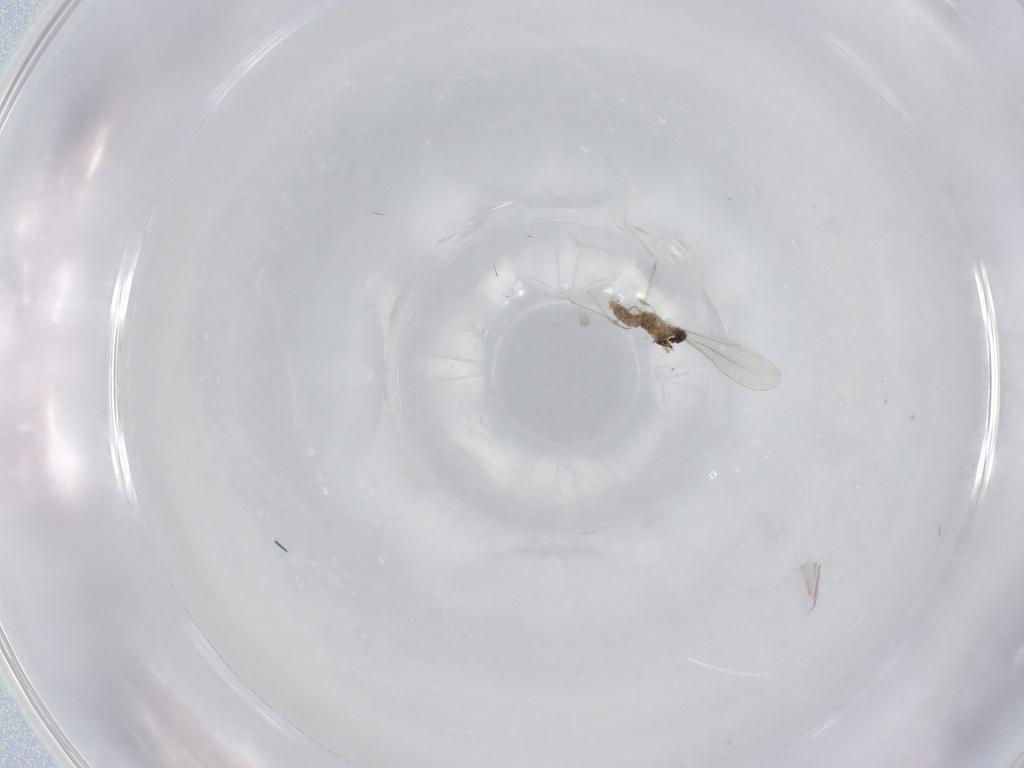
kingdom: Animalia
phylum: Arthropoda
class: Insecta
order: Diptera
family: Cecidomyiidae
